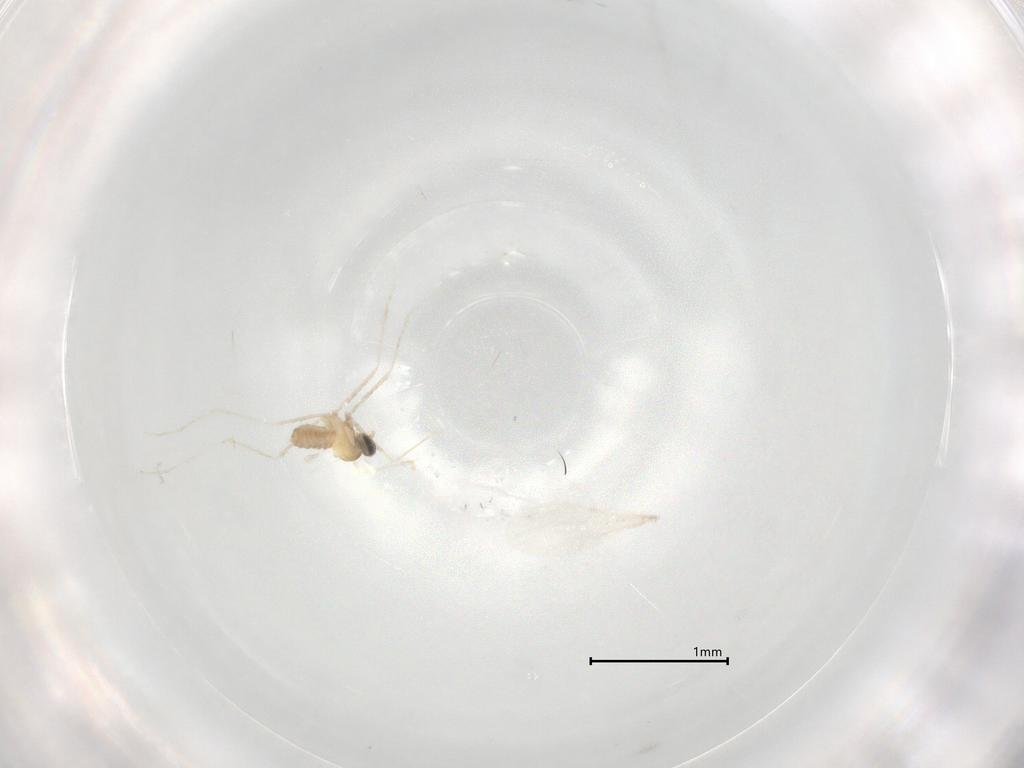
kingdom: Animalia
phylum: Arthropoda
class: Insecta
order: Diptera
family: Cecidomyiidae
